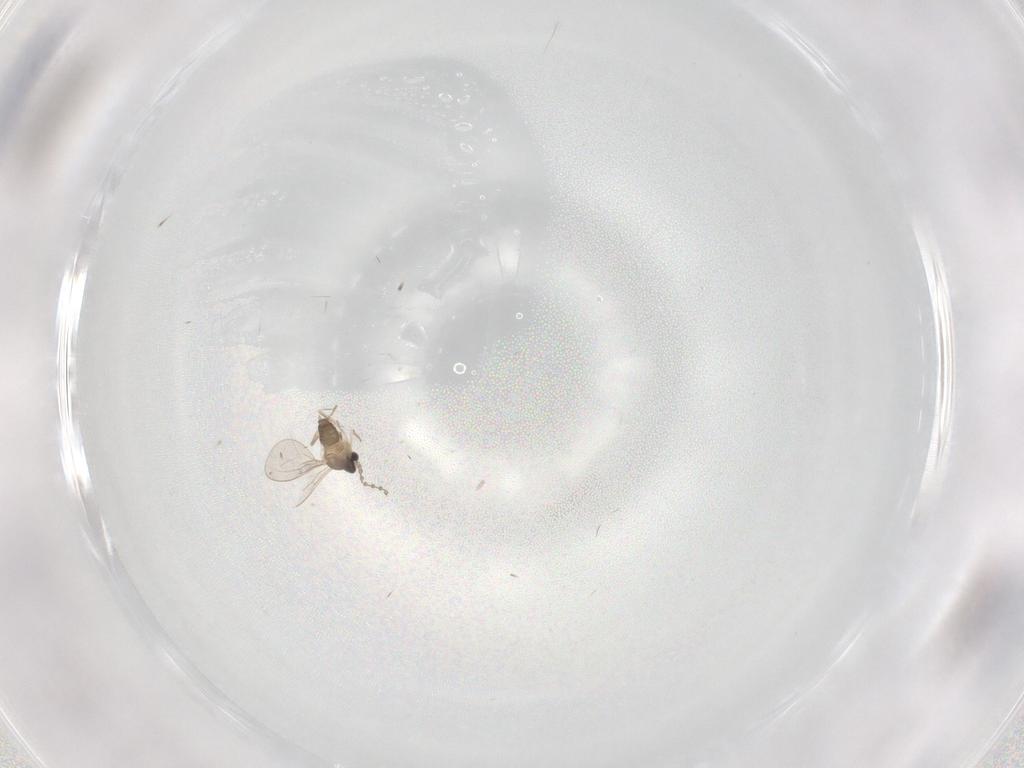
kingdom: Animalia
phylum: Arthropoda
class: Insecta
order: Diptera
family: Cecidomyiidae
